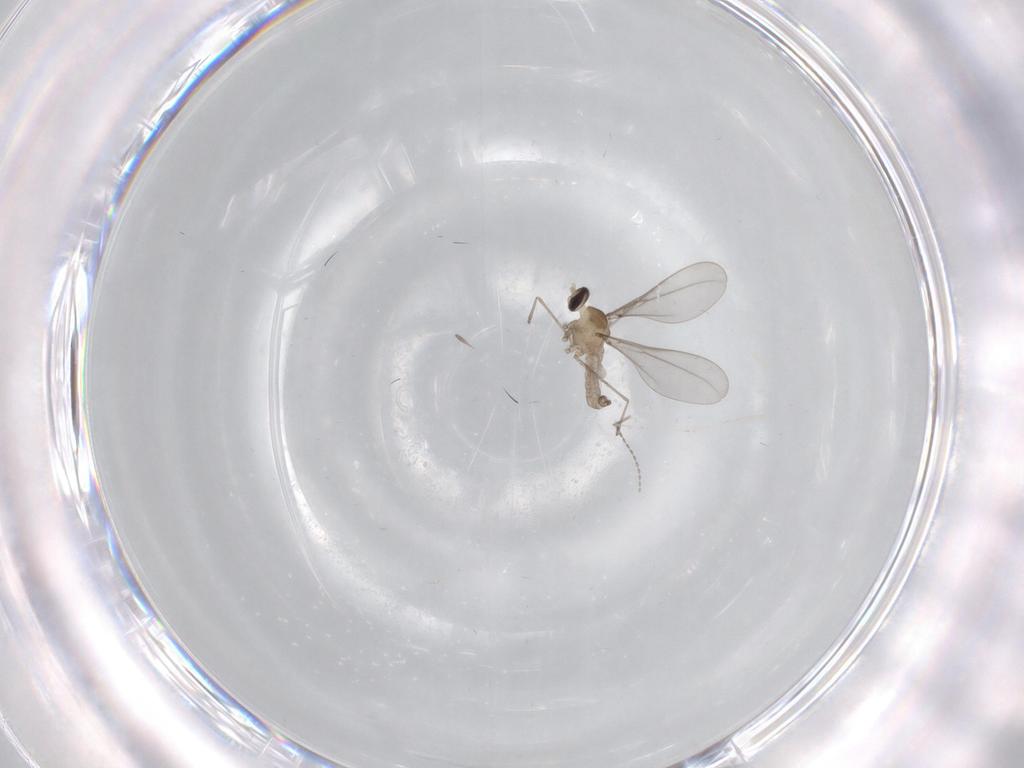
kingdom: Animalia
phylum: Arthropoda
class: Insecta
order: Diptera
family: Cecidomyiidae
